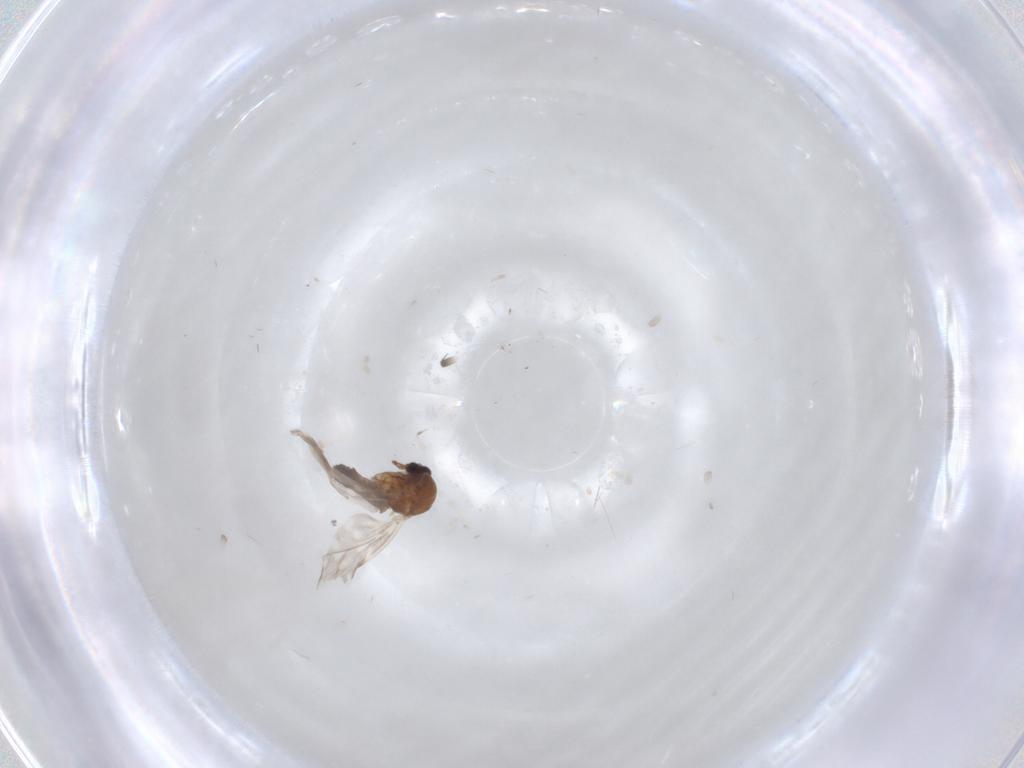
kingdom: Animalia
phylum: Arthropoda
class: Insecta
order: Diptera
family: Ceratopogonidae
